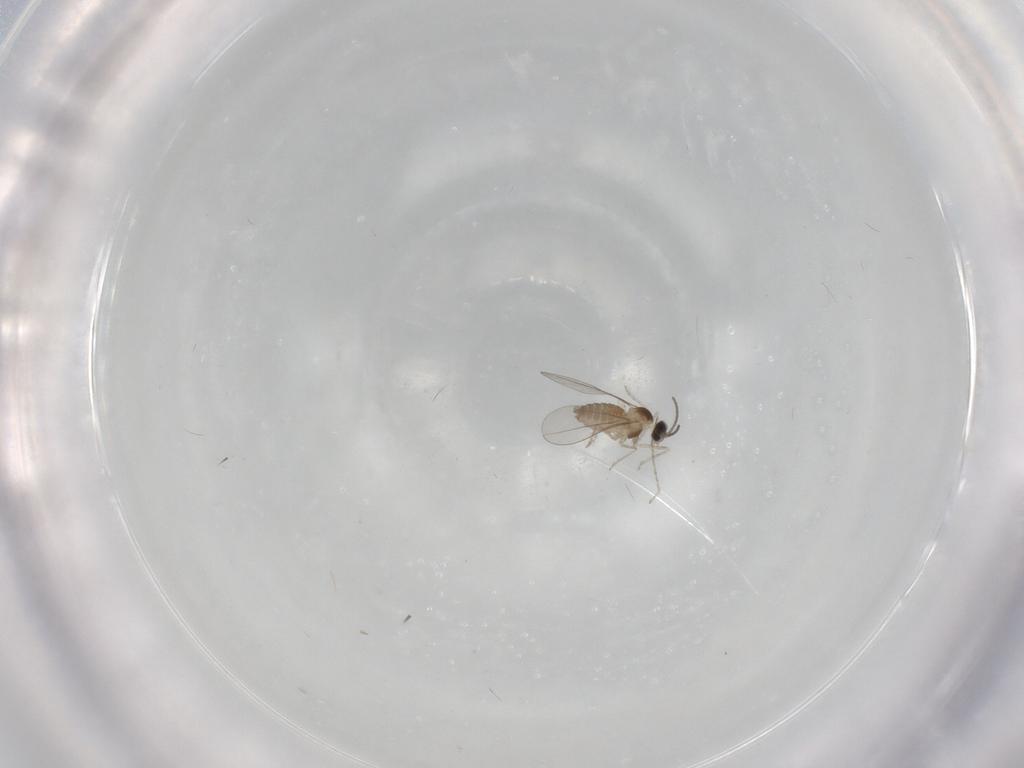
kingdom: Animalia
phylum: Arthropoda
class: Insecta
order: Diptera
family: Cecidomyiidae
